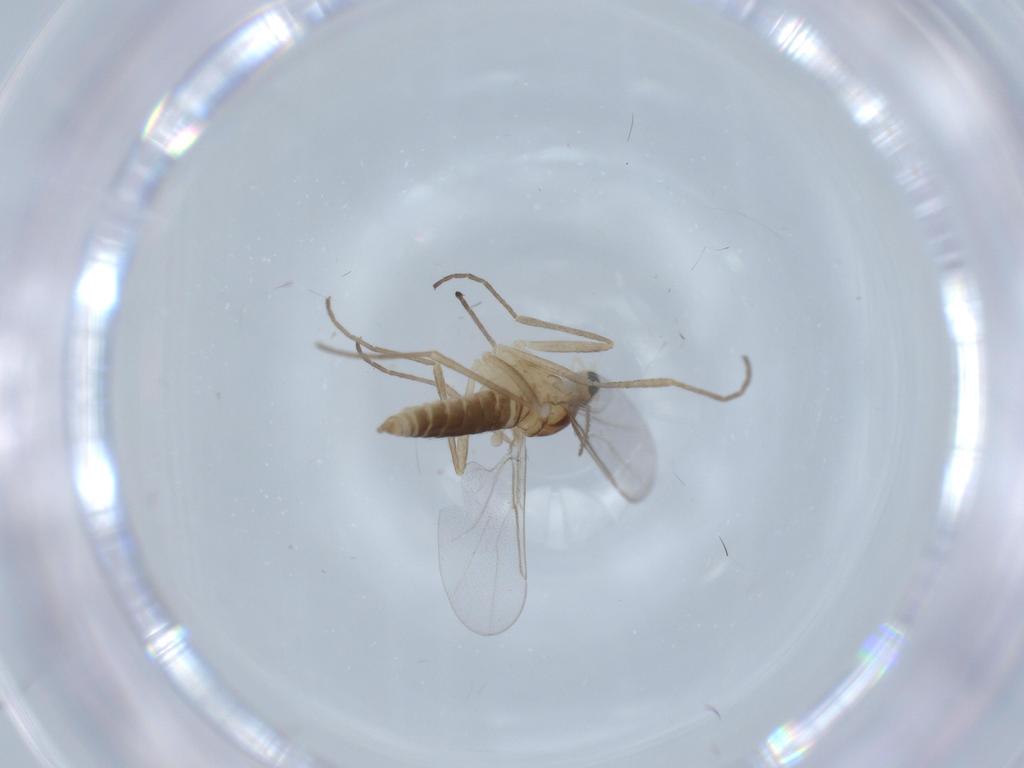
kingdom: Animalia
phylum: Arthropoda
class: Insecta
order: Diptera
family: Cecidomyiidae
